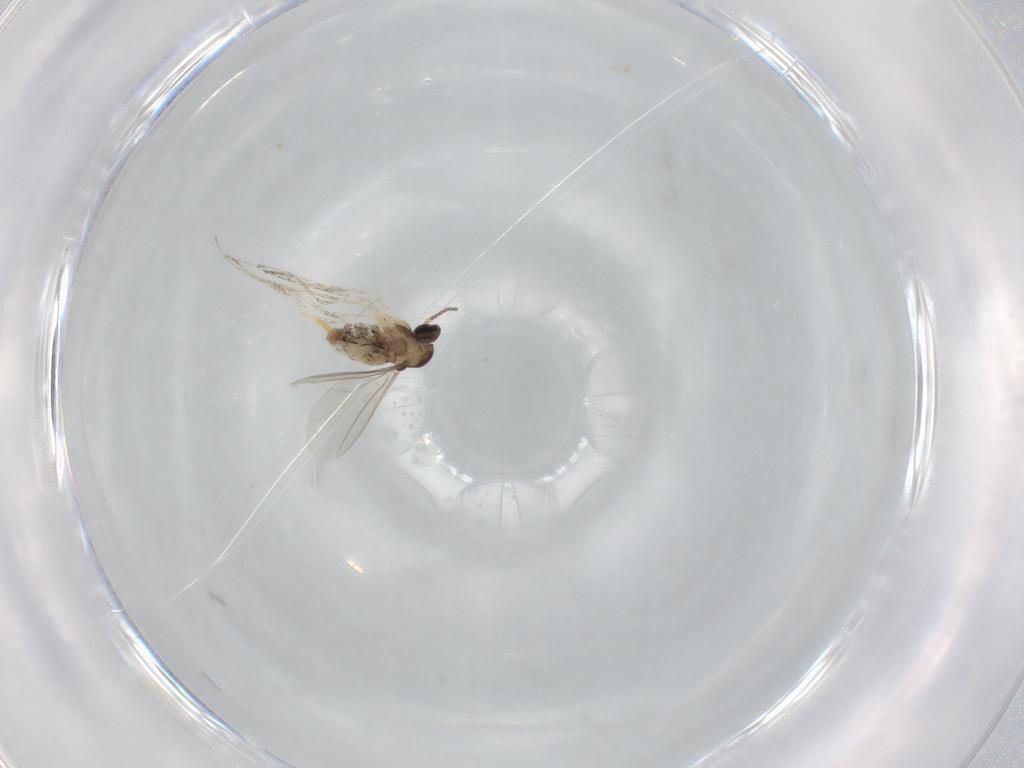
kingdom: Animalia
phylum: Arthropoda
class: Insecta
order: Diptera
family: Cecidomyiidae
